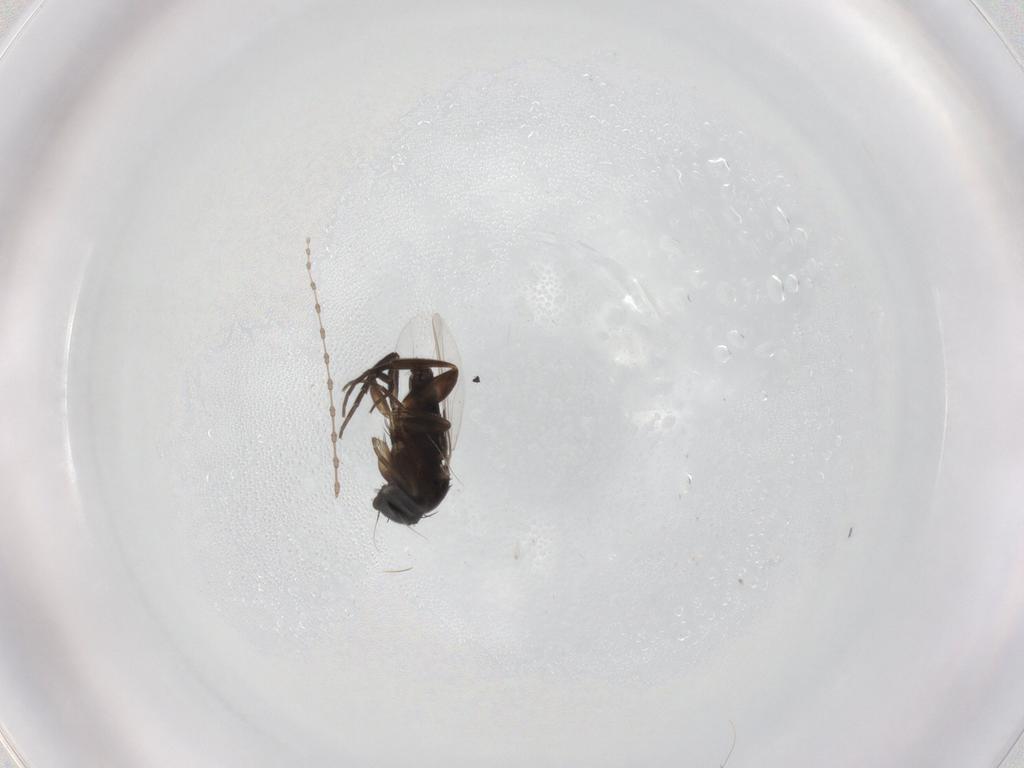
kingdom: Animalia
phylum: Arthropoda
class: Insecta
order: Diptera
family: Phoridae
